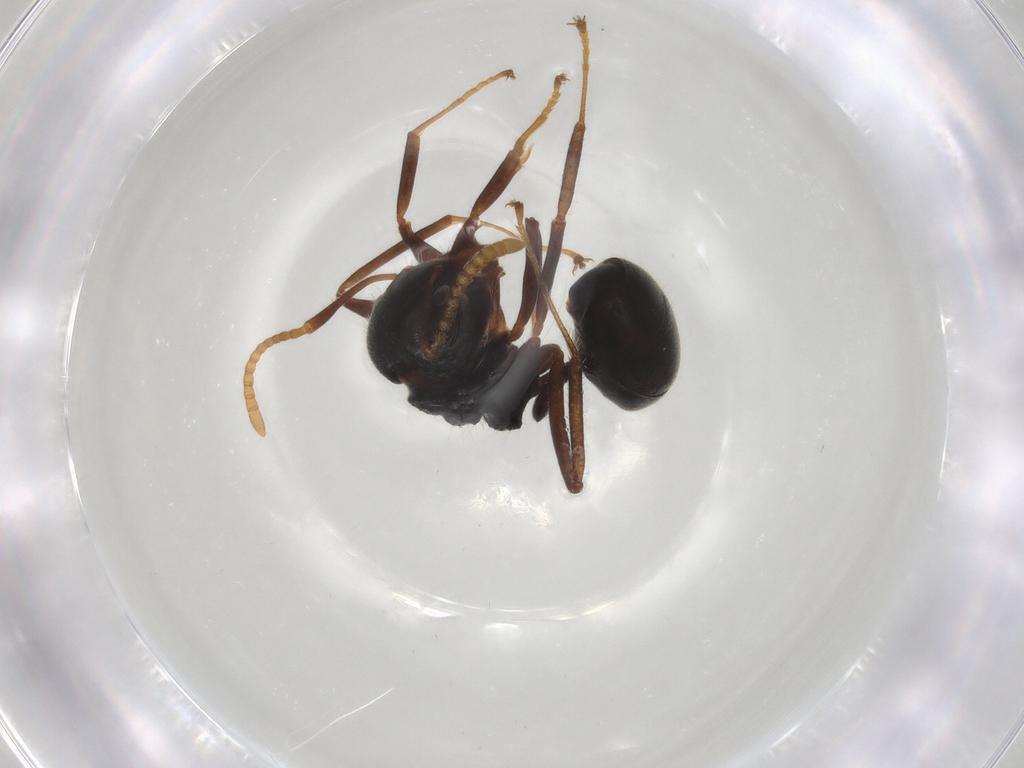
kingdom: Animalia
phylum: Arthropoda
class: Insecta
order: Hymenoptera
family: Formicidae
